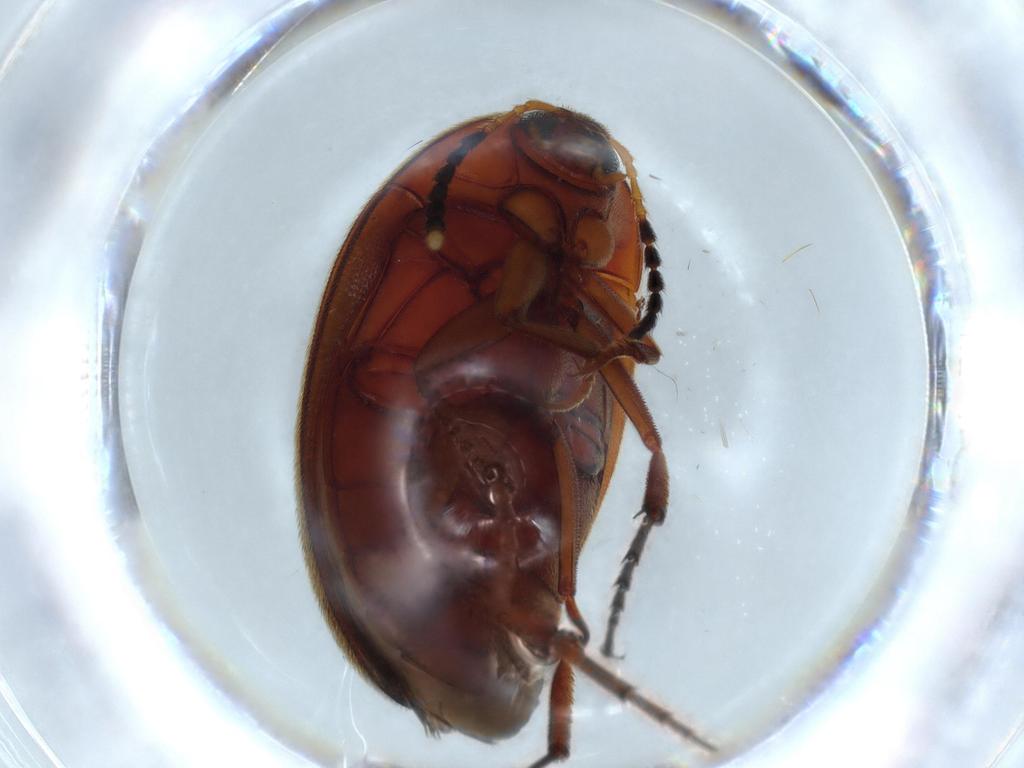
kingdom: Animalia
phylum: Arthropoda
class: Insecta
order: Coleoptera
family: Curculionidae
